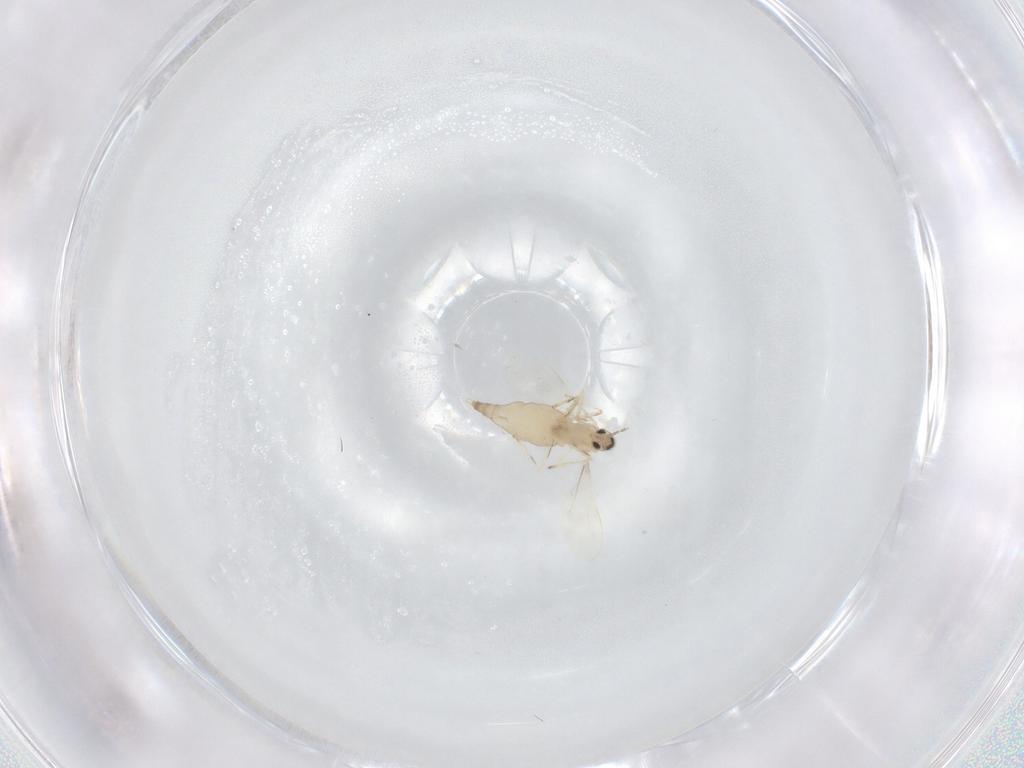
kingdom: Animalia
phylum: Arthropoda
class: Insecta
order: Diptera
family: Cecidomyiidae
